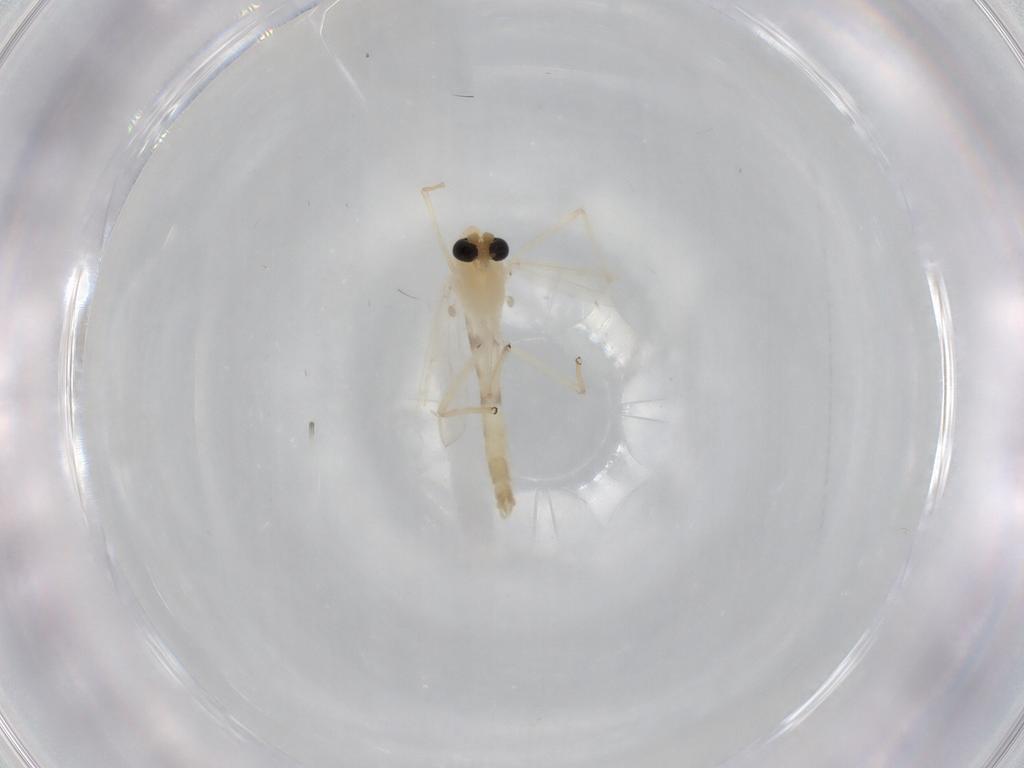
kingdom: Animalia
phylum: Arthropoda
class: Insecta
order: Diptera
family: Chironomidae
